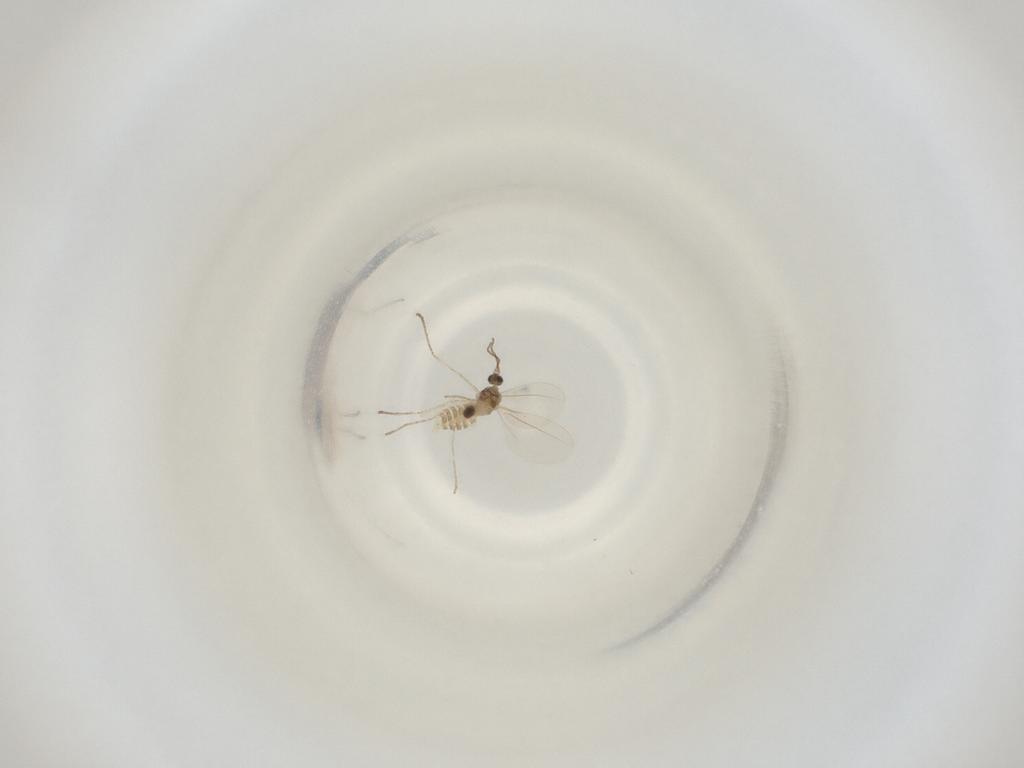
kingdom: Animalia
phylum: Arthropoda
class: Insecta
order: Diptera
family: Cecidomyiidae
